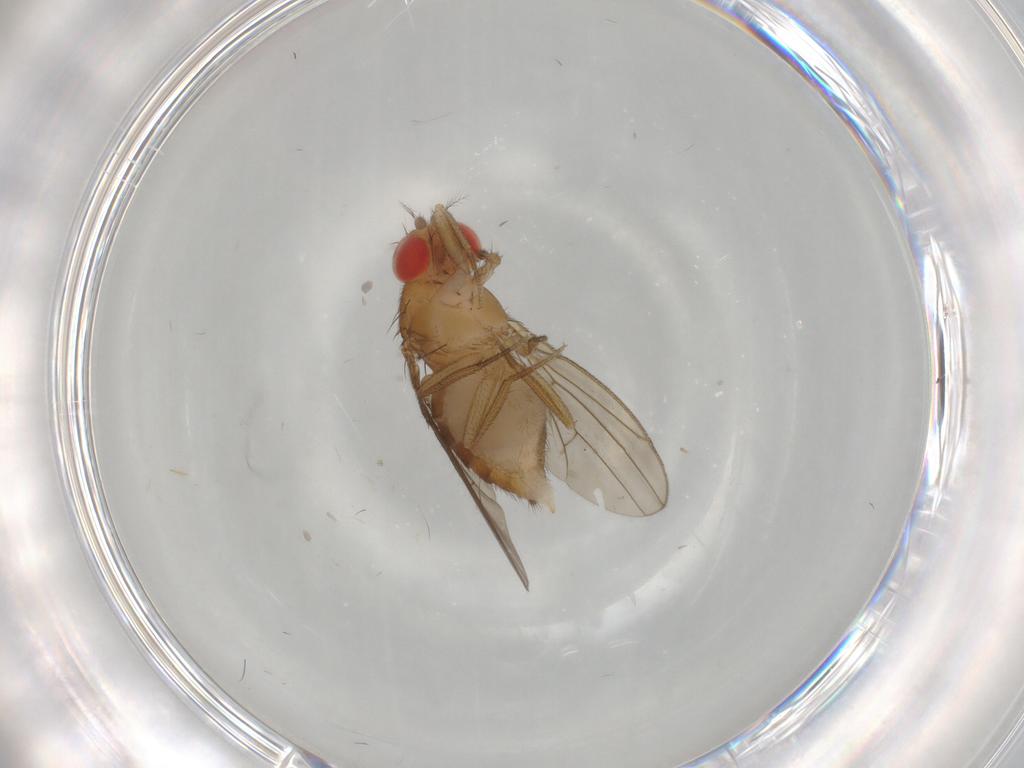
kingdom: Animalia
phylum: Arthropoda
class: Insecta
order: Diptera
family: Drosophilidae
